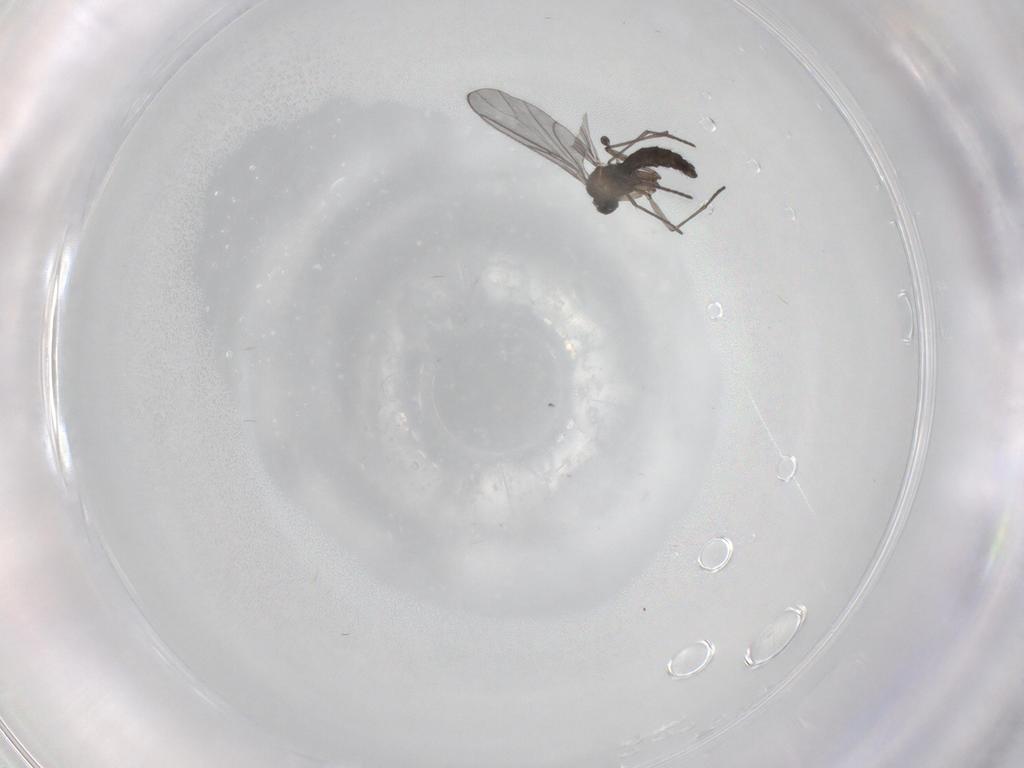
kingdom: Animalia
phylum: Arthropoda
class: Insecta
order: Diptera
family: Sciaridae
